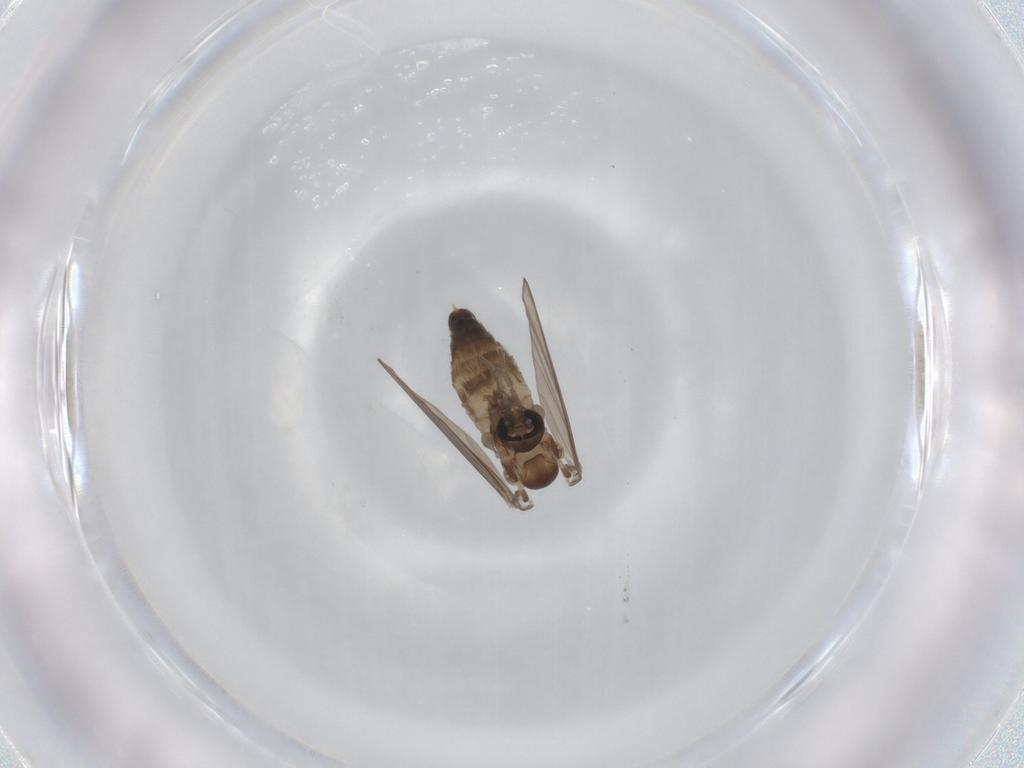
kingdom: Animalia
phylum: Arthropoda
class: Insecta
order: Diptera
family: Psychodidae
